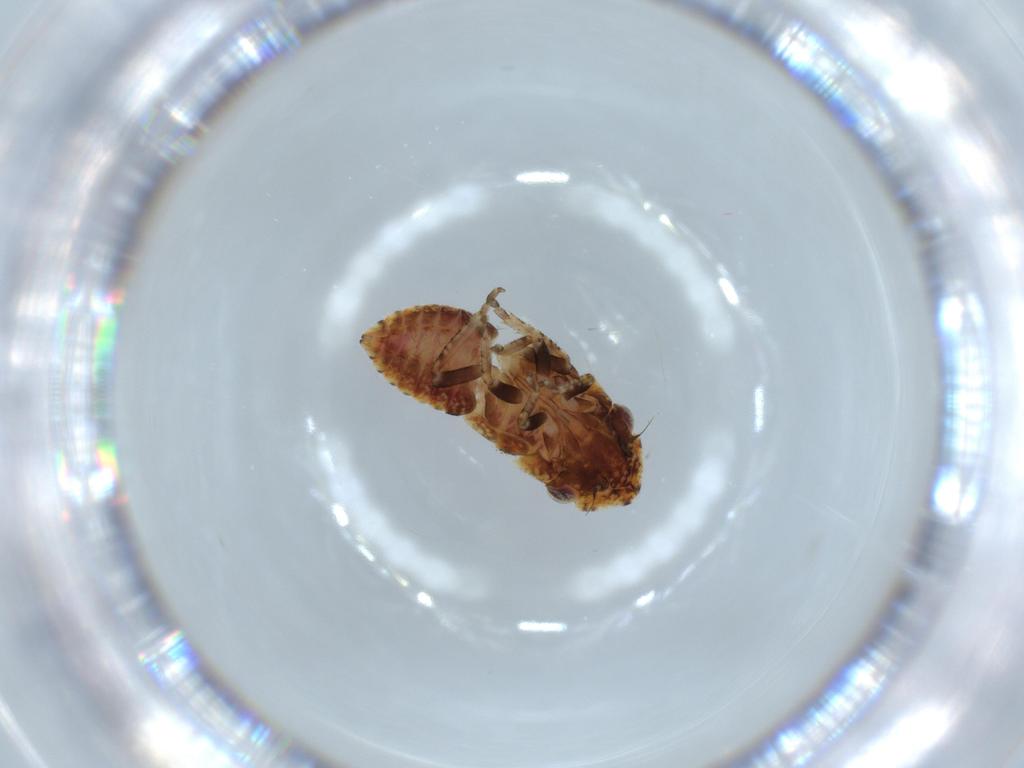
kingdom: Animalia
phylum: Arthropoda
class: Insecta
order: Hemiptera
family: Cicadellidae
